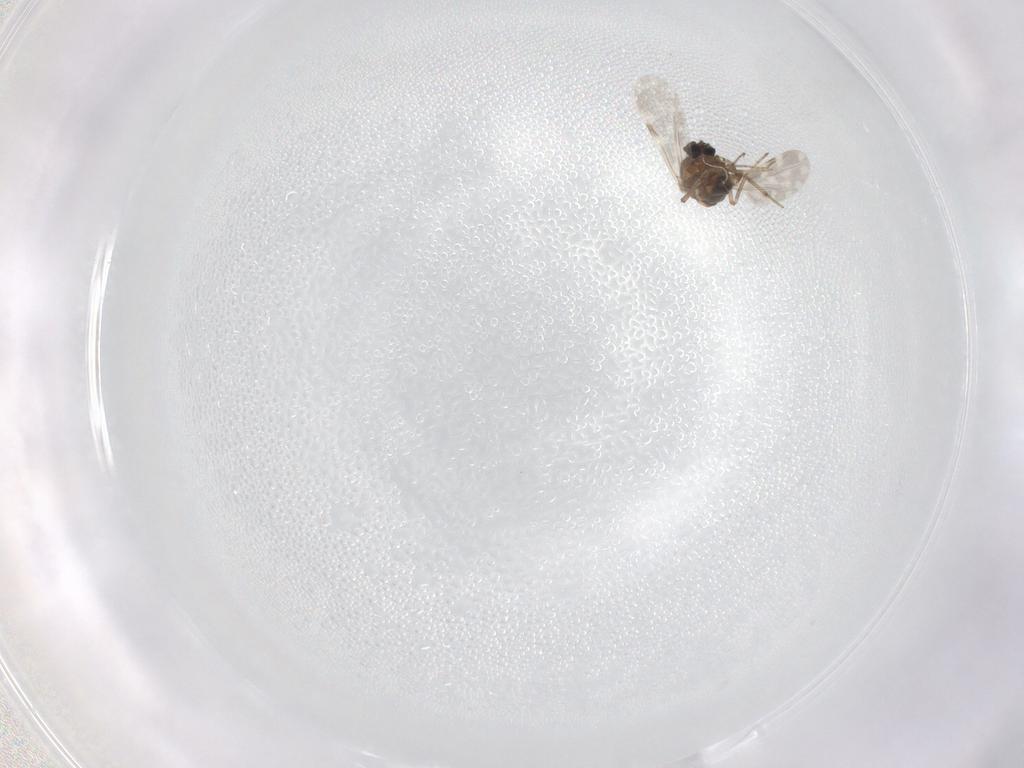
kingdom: Animalia
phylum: Arthropoda
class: Insecta
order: Diptera
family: Ceratopogonidae
